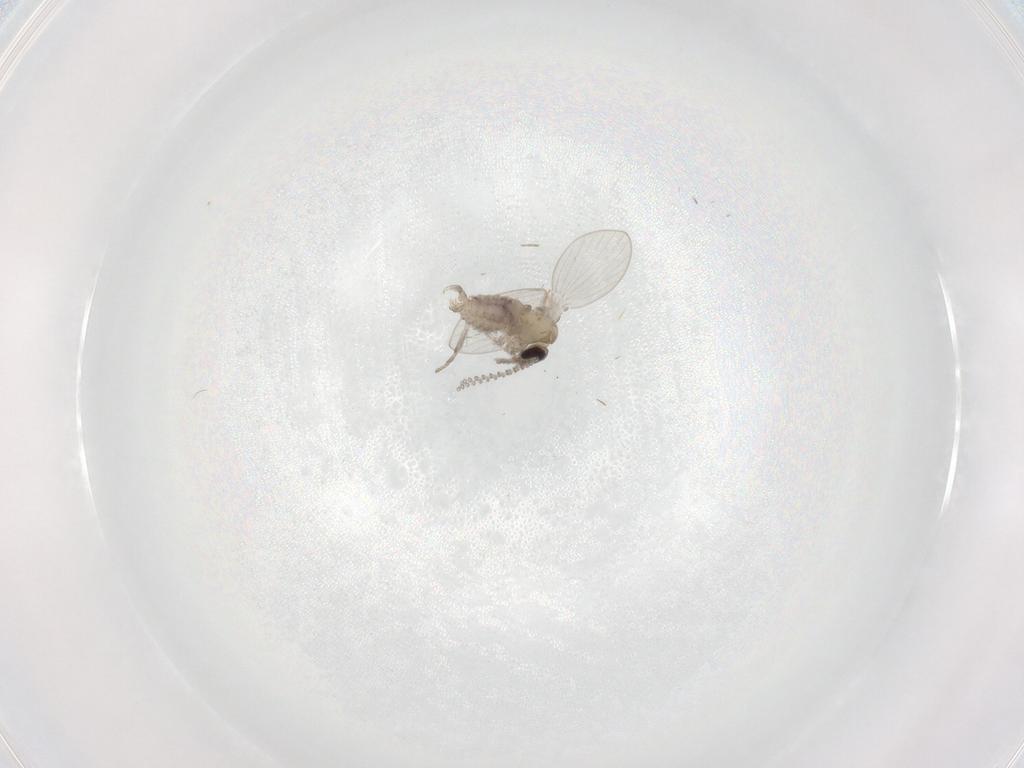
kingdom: Animalia
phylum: Arthropoda
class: Insecta
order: Diptera
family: Psychodidae
